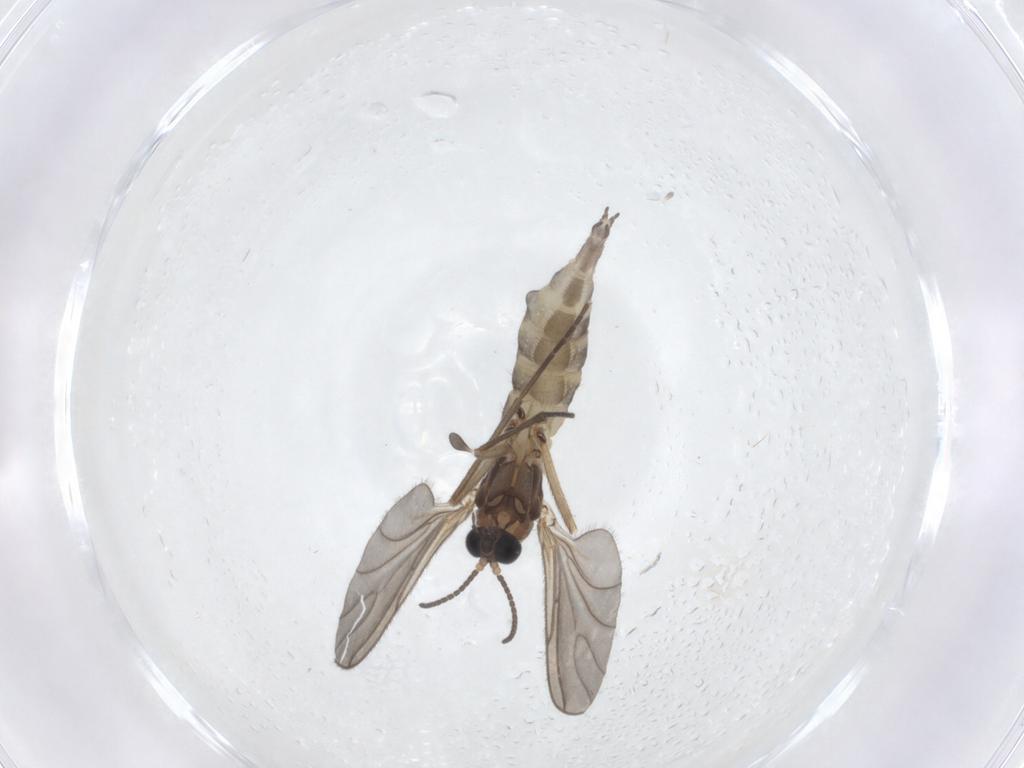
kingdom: Animalia
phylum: Arthropoda
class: Insecta
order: Diptera
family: Sciaridae
